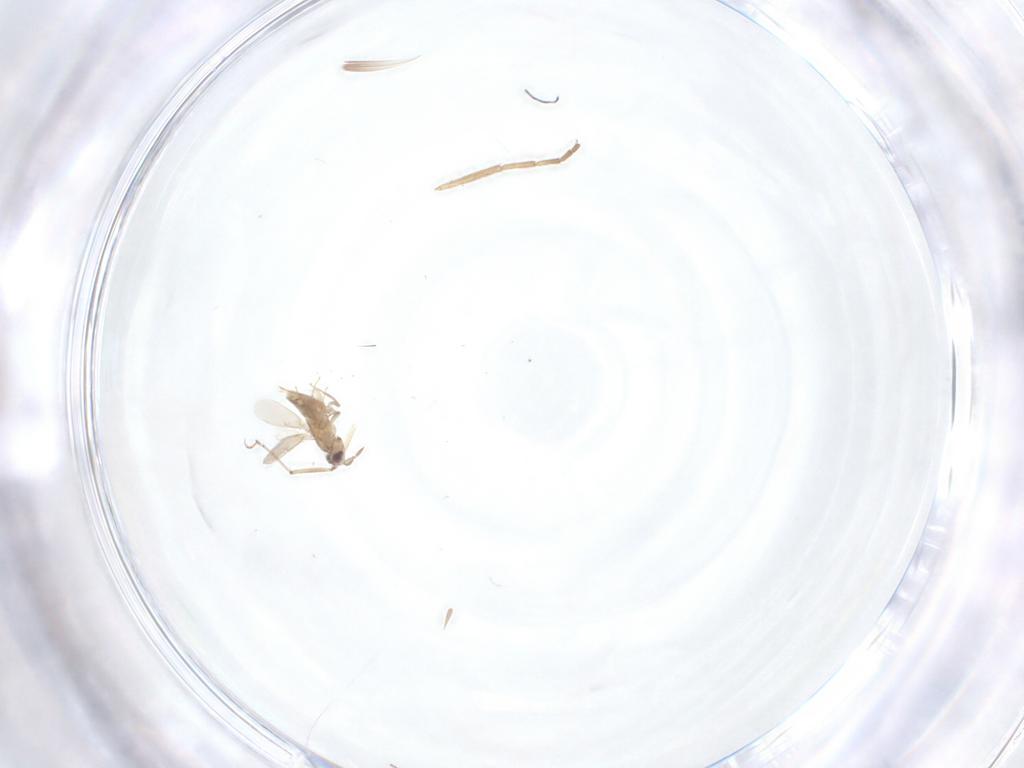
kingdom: Animalia
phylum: Arthropoda
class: Insecta
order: Hymenoptera
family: Aphelinidae
